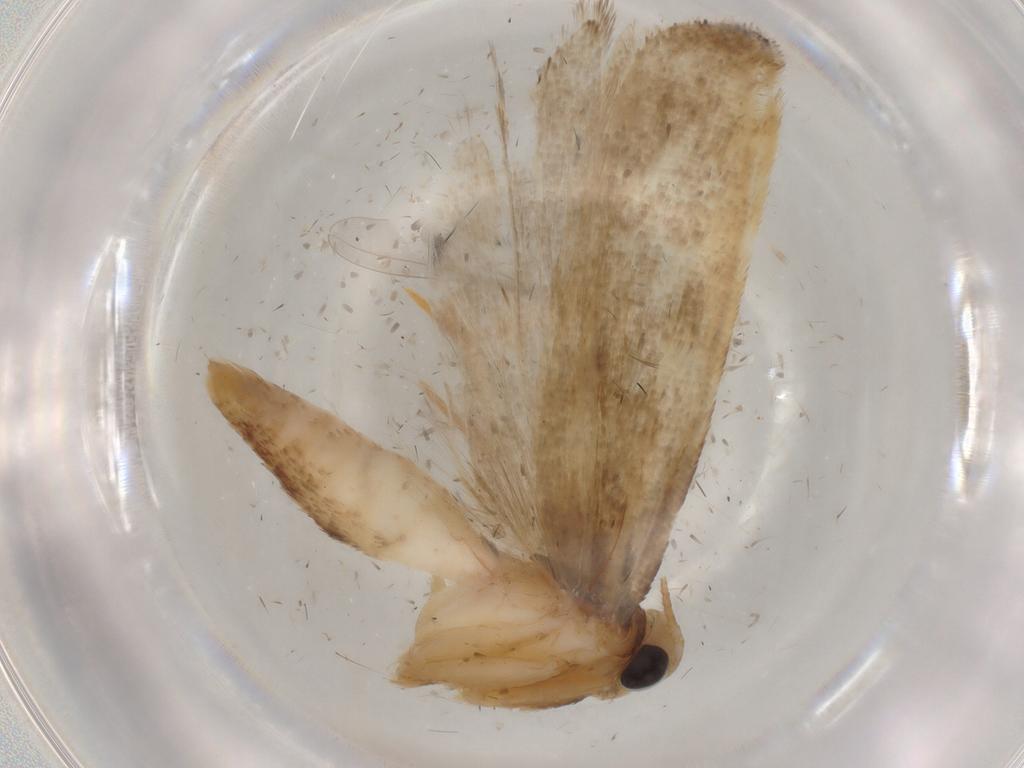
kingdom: Animalia
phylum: Arthropoda
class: Insecta
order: Lepidoptera
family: Gelechiidae
